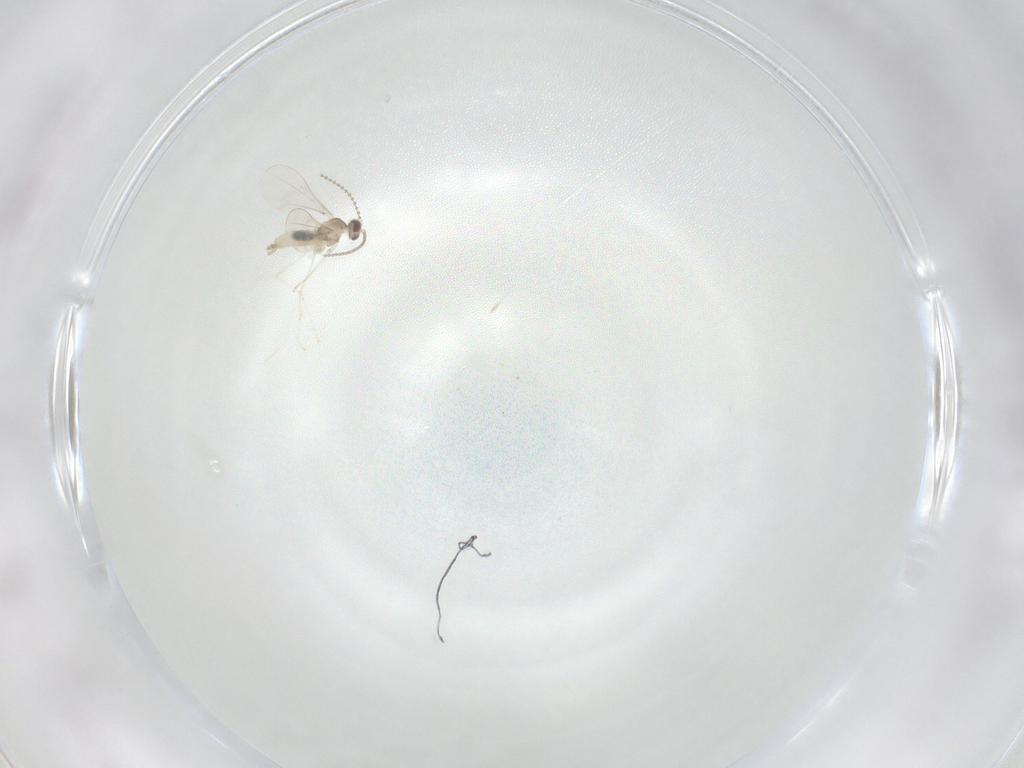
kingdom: Animalia
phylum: Arthropoda
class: Insecta
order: Diptera
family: Cecidomyiidae
